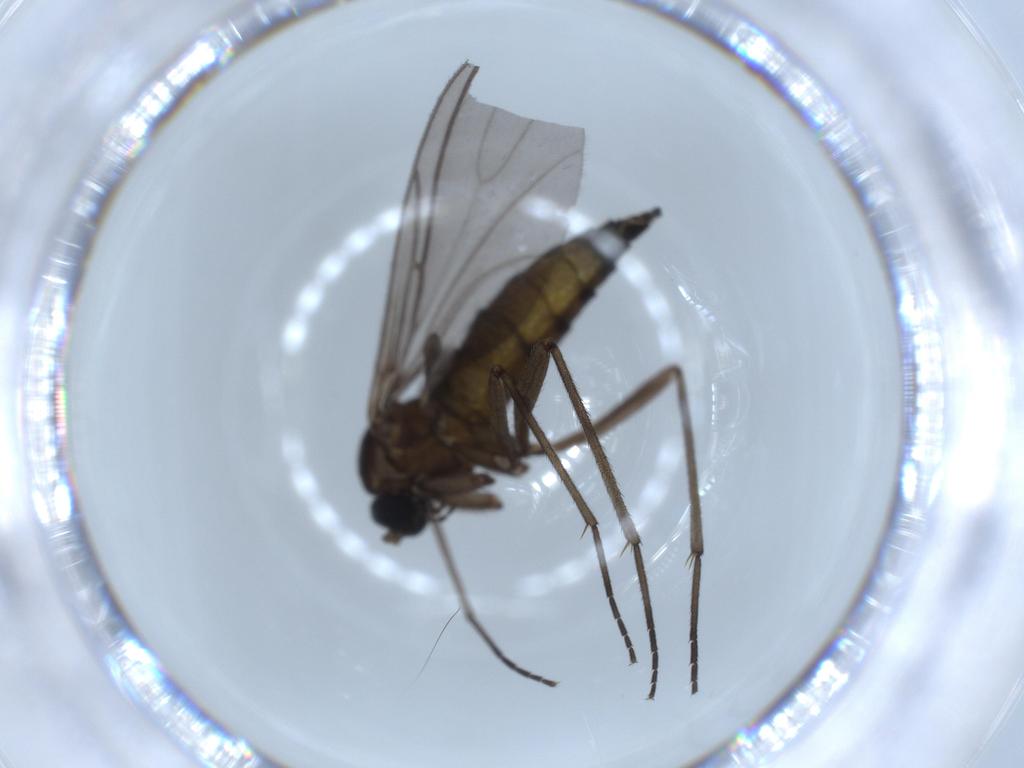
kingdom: Animalia
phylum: Arthropoda
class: Insecta
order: Diptera
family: Sciaridae
